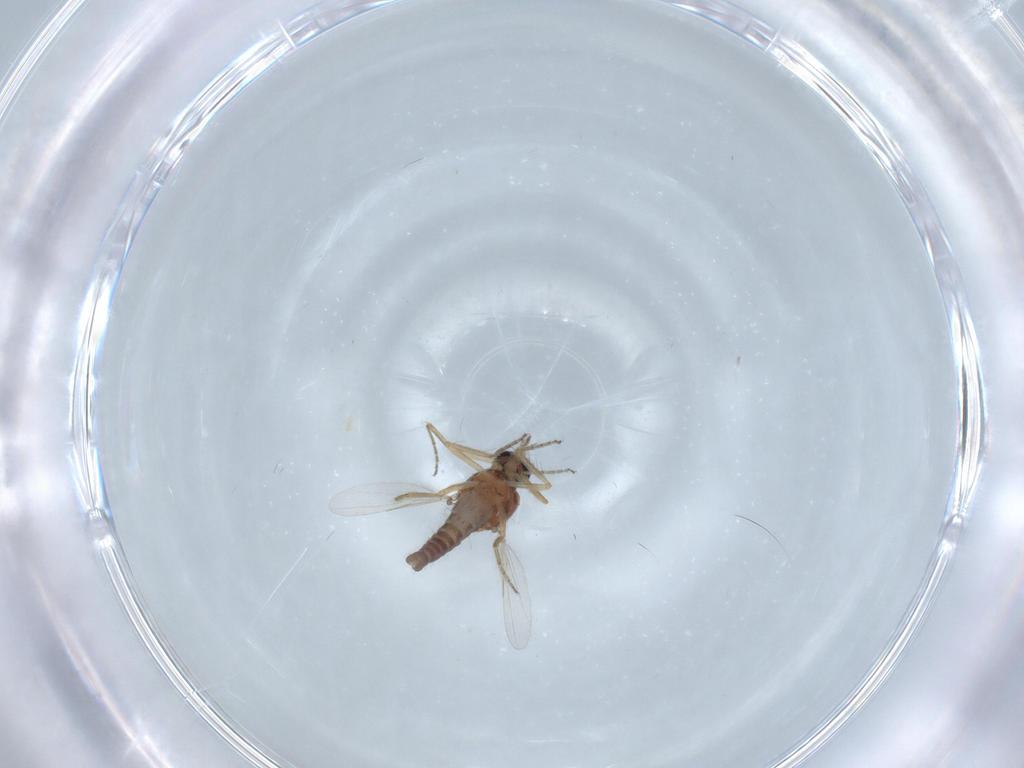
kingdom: Animalia
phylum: Arthropoda
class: Insecta
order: Diptera
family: Ceratopogonidae
